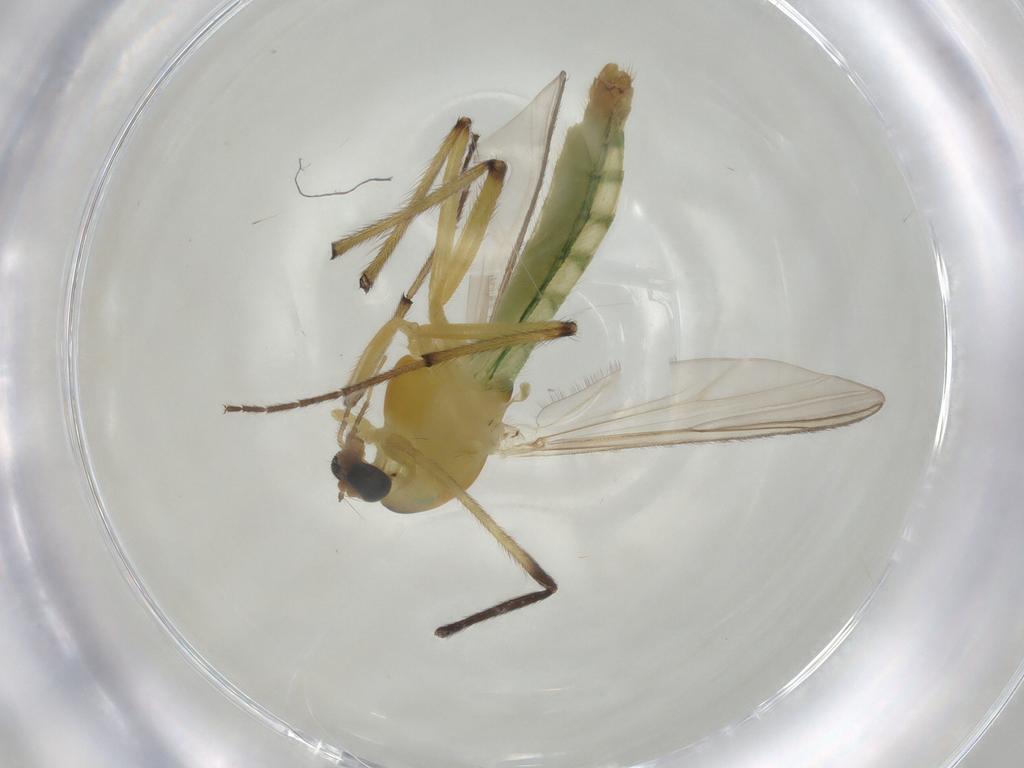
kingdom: Animalia
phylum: Arthropoda
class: Insecta
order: Diptera
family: Chironomidae
